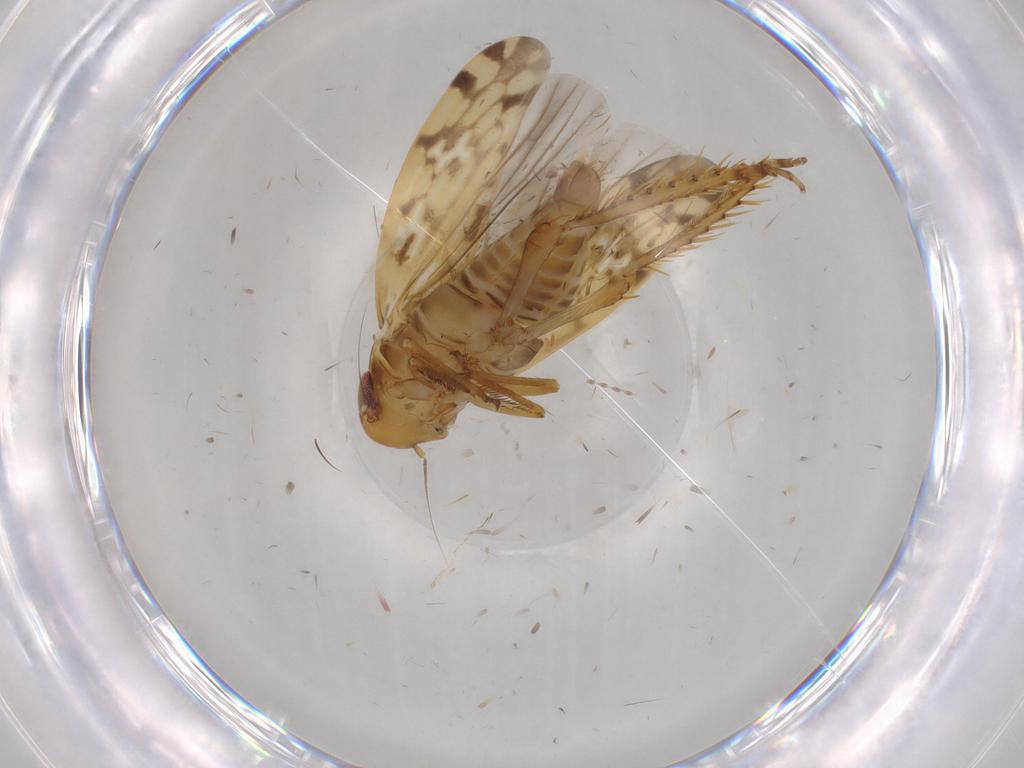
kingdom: Animalia
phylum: Arthropoda
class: Insecta
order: Hemiptera
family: Cicadellidae
